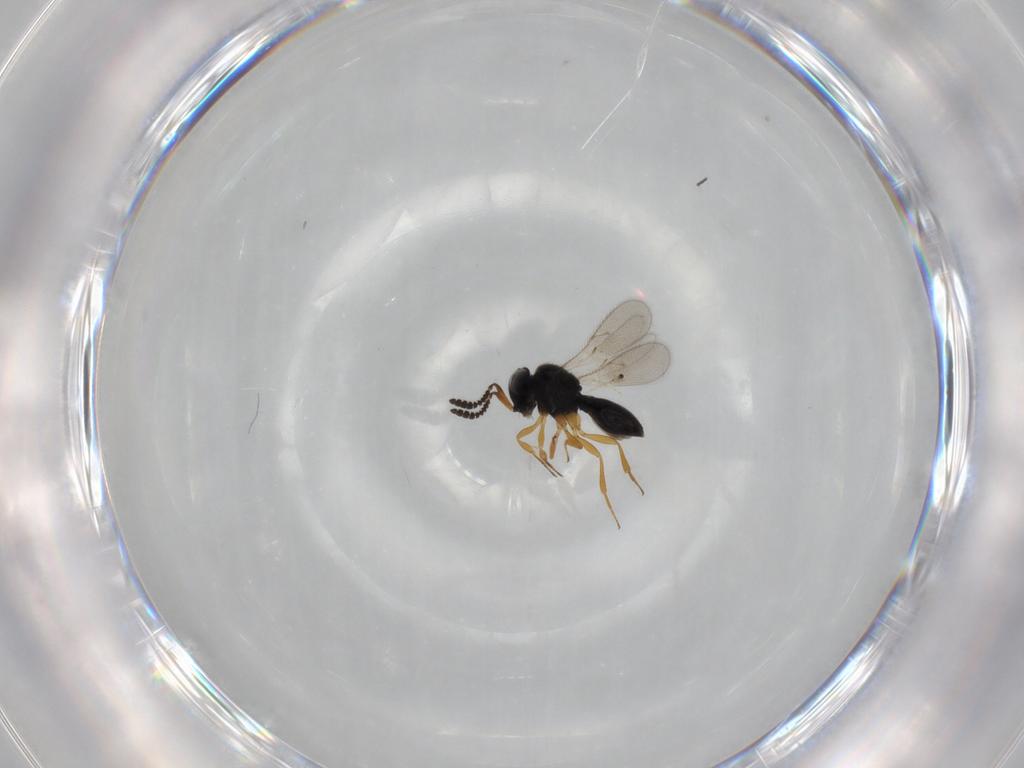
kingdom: Animalia
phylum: Arthropoda
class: Insecta
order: Hymenoptera
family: Scelionidae
